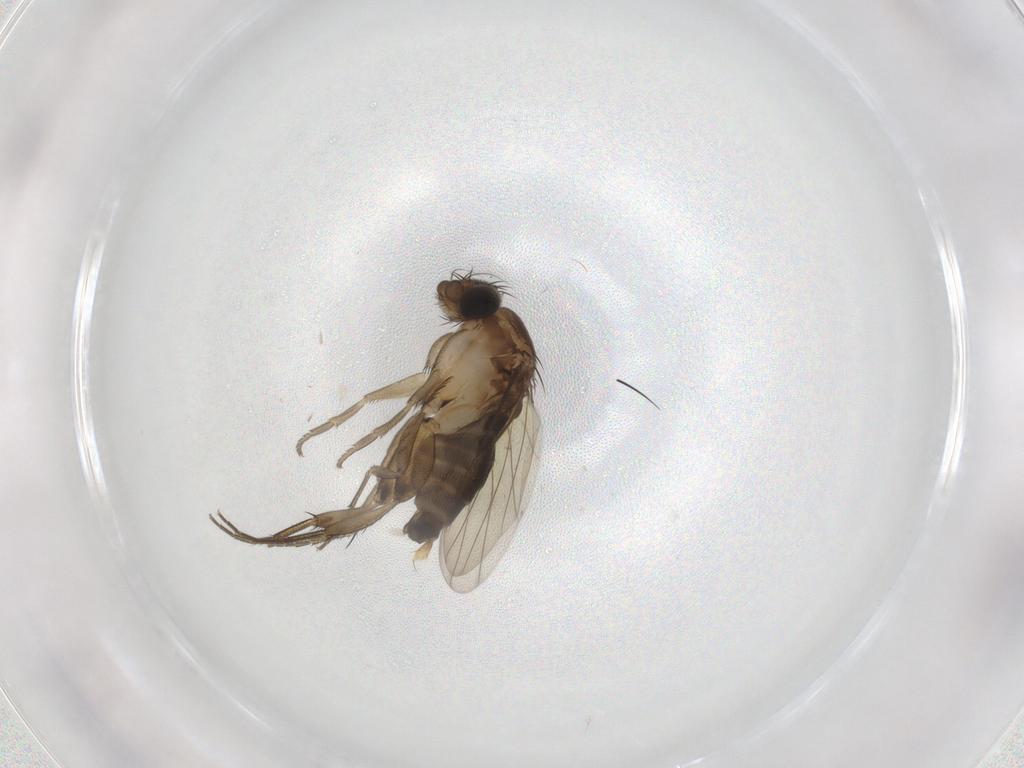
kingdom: Animalia
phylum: Arthropoda
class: Insecta
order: Diptera
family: Phoridae
